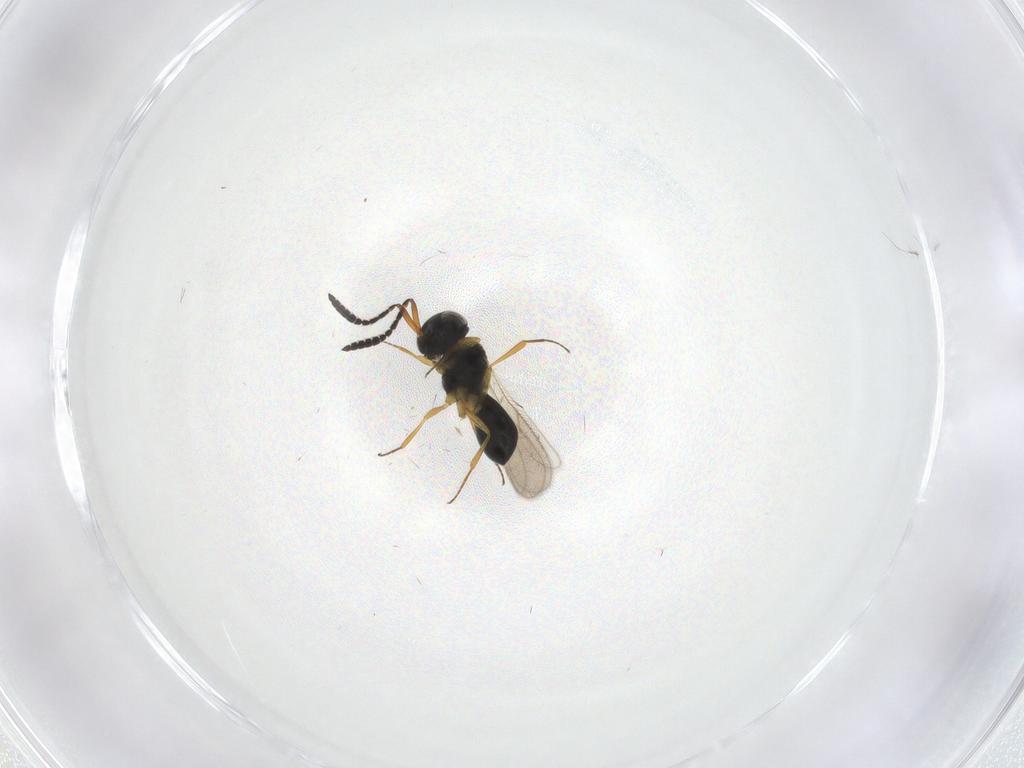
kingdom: Animalia
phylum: Arthropoda
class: Insecta
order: Hymenoptera
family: Scelionidae
